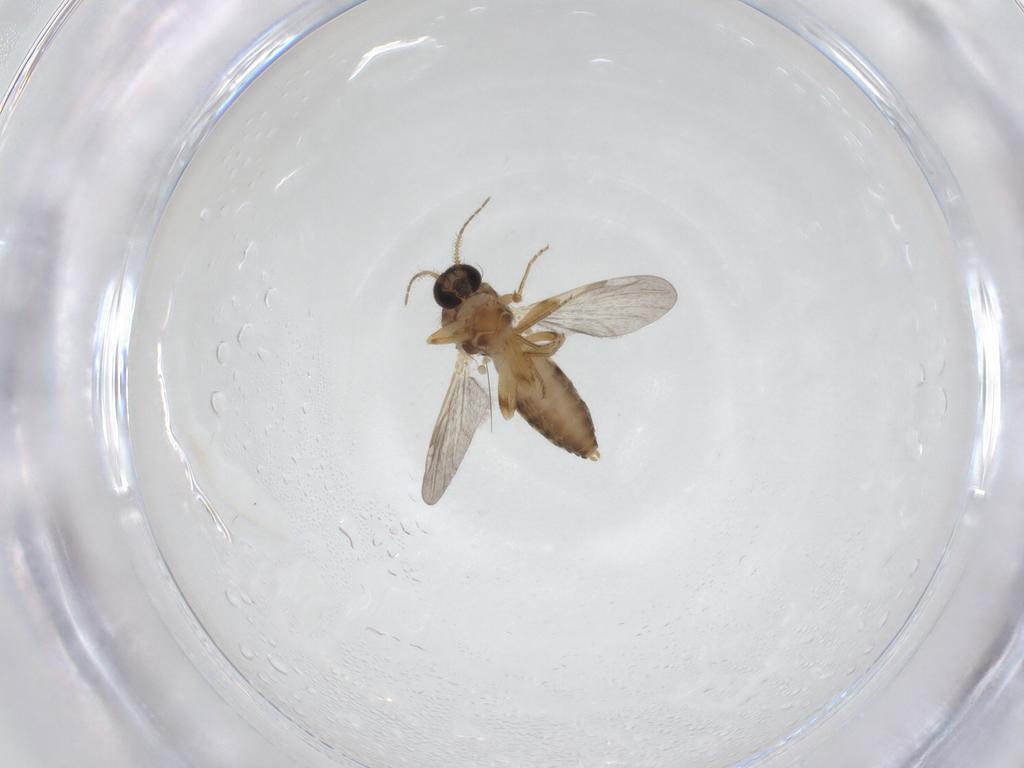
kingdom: Animalia
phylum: Arthropoda
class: Insecta
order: Diptera
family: Ceratopogonidae
